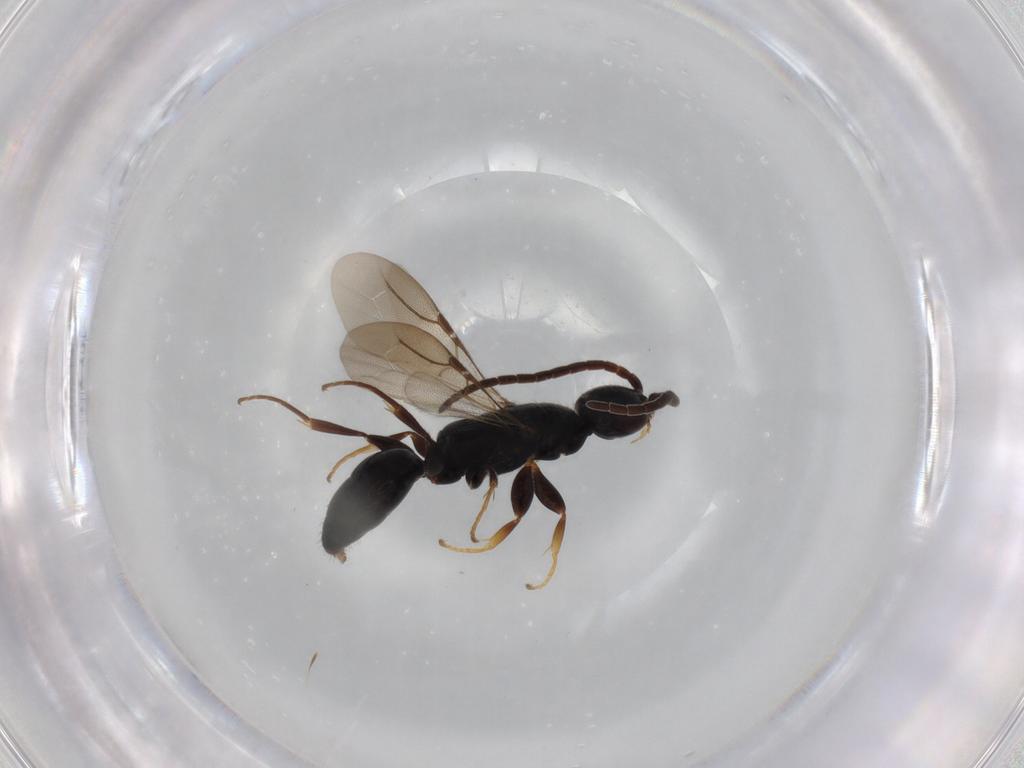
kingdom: Animalia
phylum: Arthropoda
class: Insecta
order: Hymenoptera
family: Bethylidae
